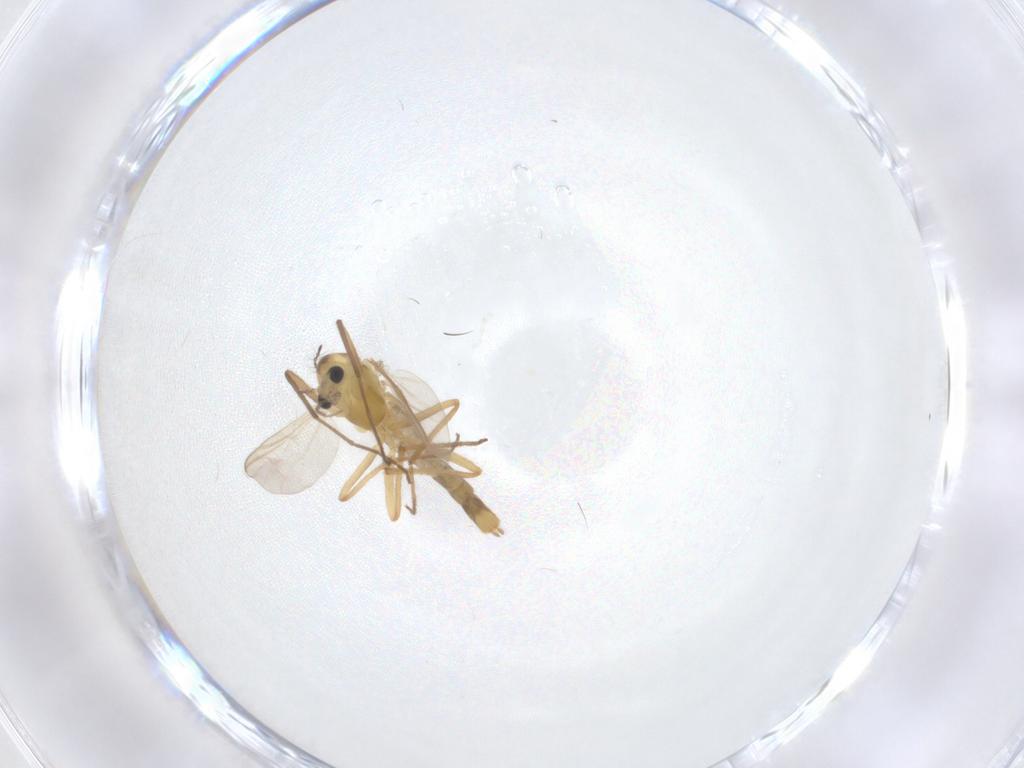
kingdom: Animalia
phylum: Arthropoda
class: Insecta
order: Diptera
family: Chironomidae
